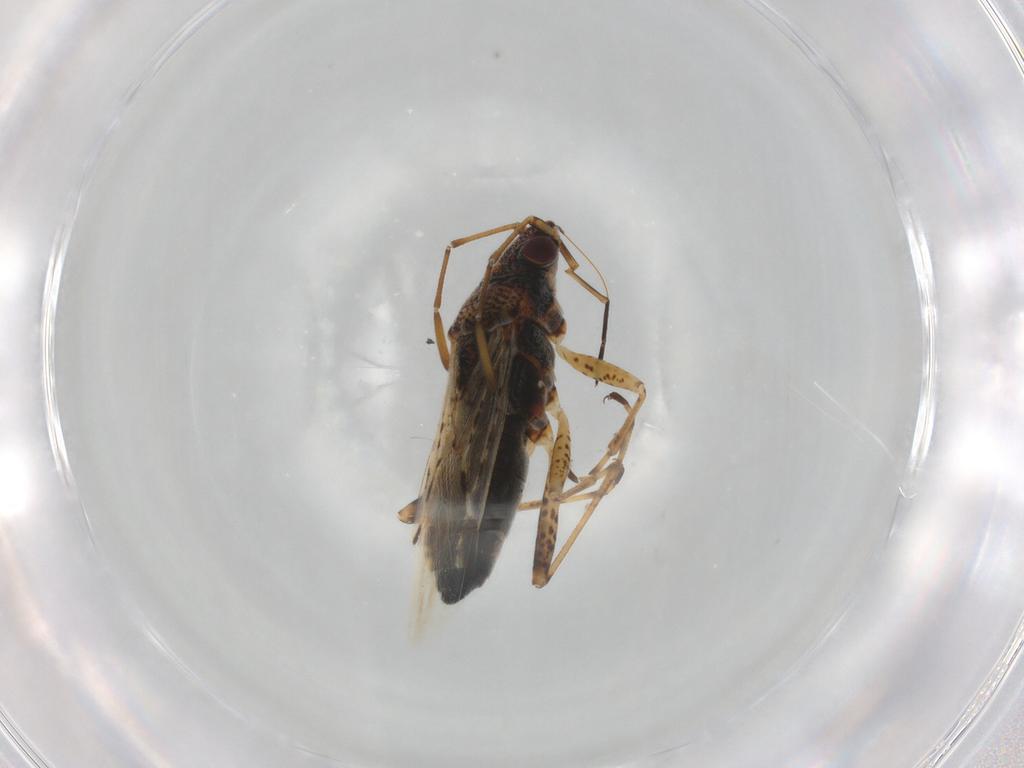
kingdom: Animalia
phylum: Arthropoda
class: Insecta
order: Hemiptera
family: Lygaeidae
